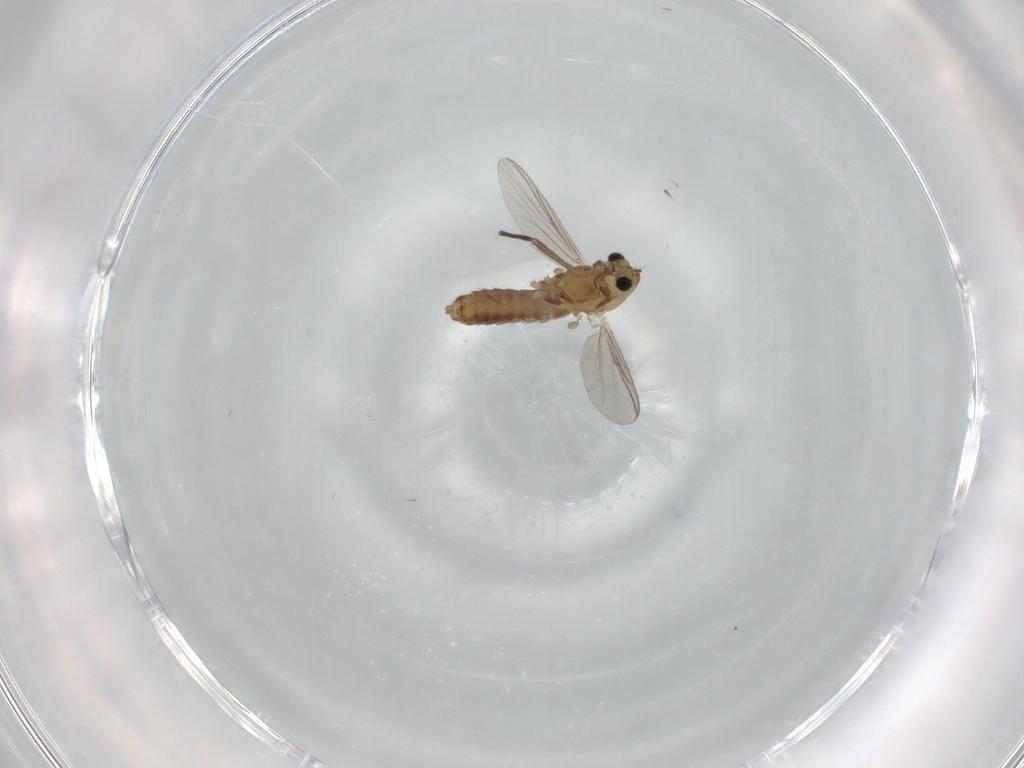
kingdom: Animalia
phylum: Arthropoda
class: Insecta
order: Diptera
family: Chironomidae
